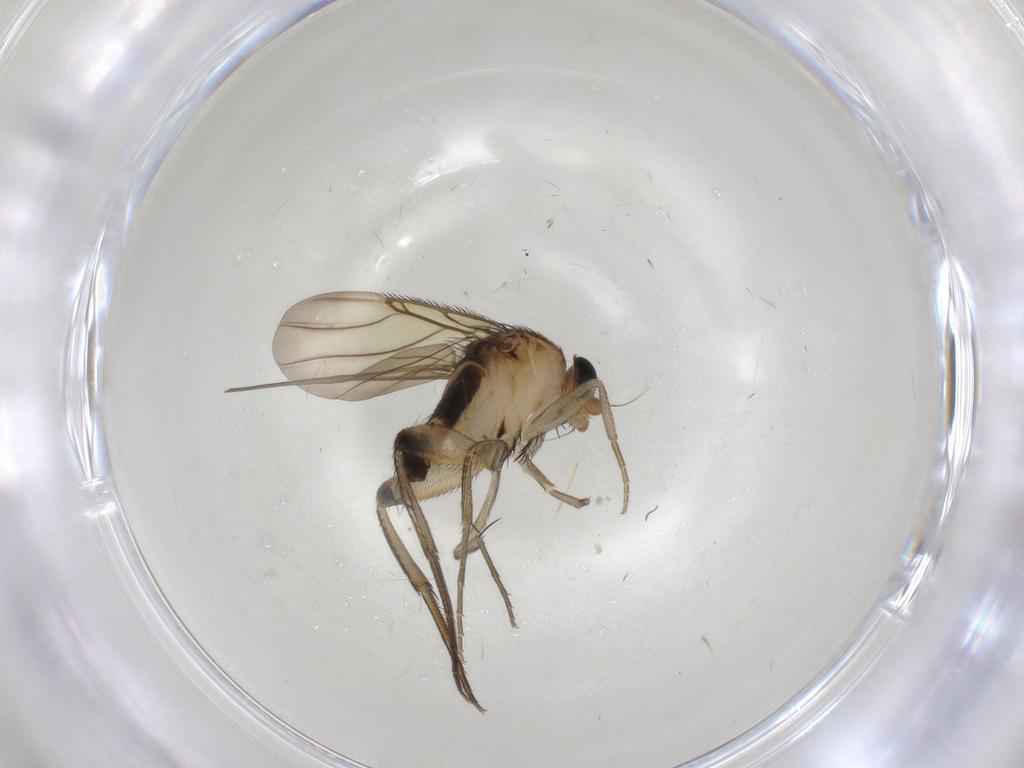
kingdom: Animalia
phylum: Arthropoda
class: Insecta
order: Diptera
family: Phoridae
